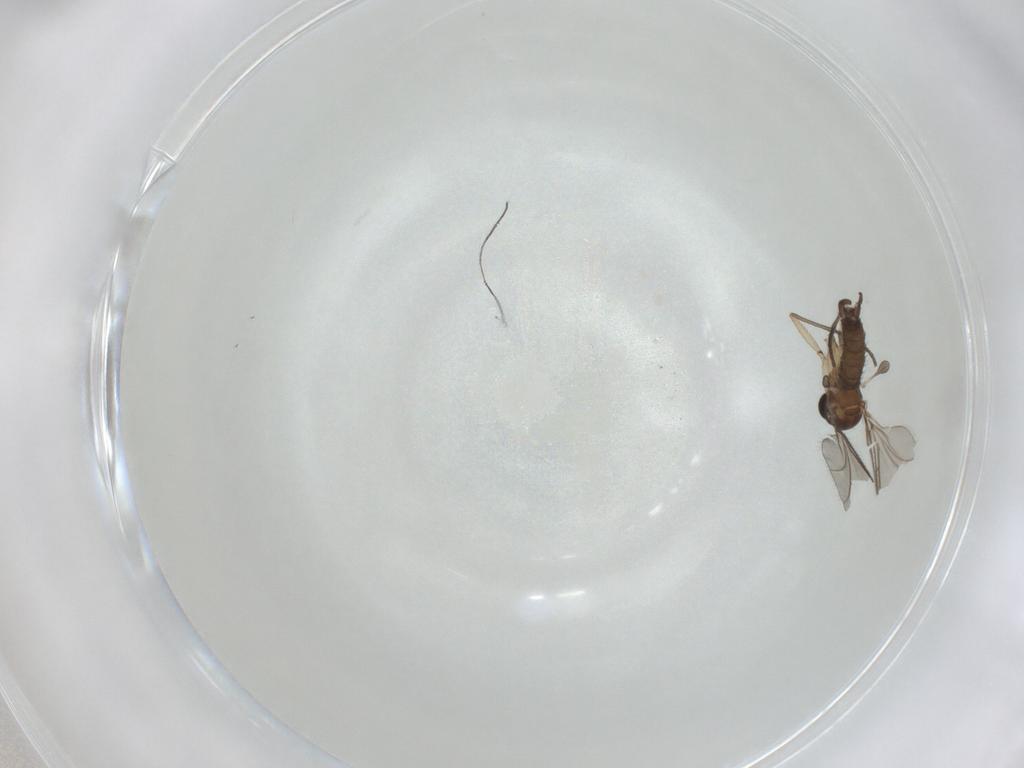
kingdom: Animalia
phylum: Arthropoda
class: Insecta
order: Diptera
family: Sciaridae
